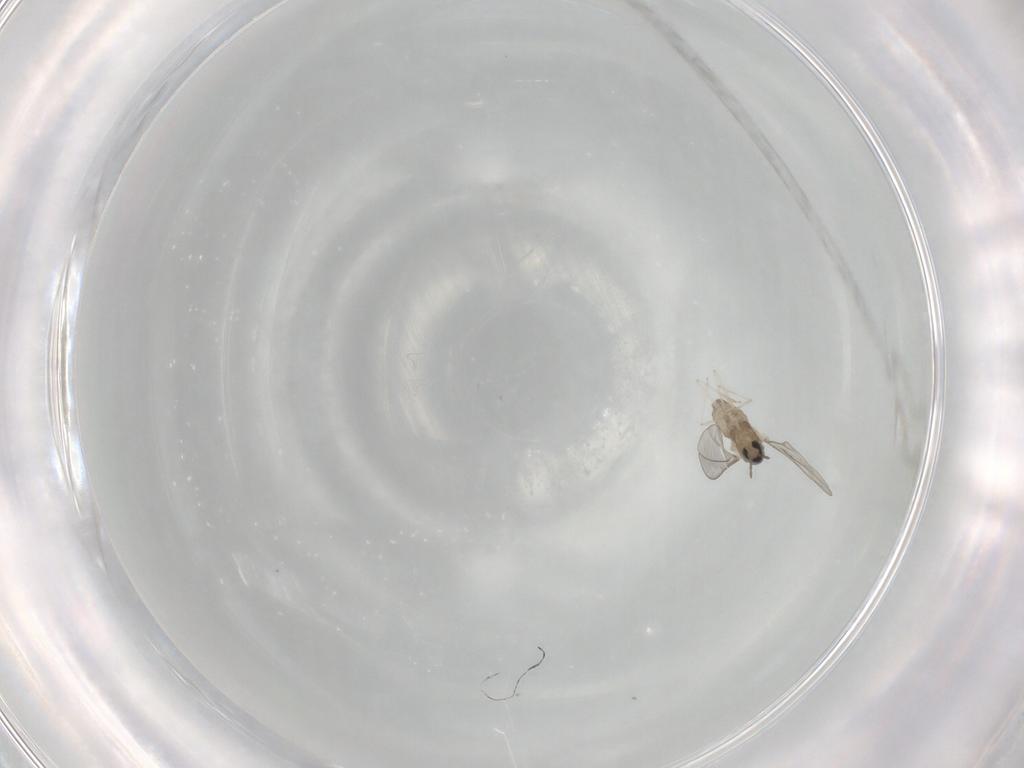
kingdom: Animalia
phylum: Arthropoda
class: Insecta
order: Diptera
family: Cecidomyiidae
